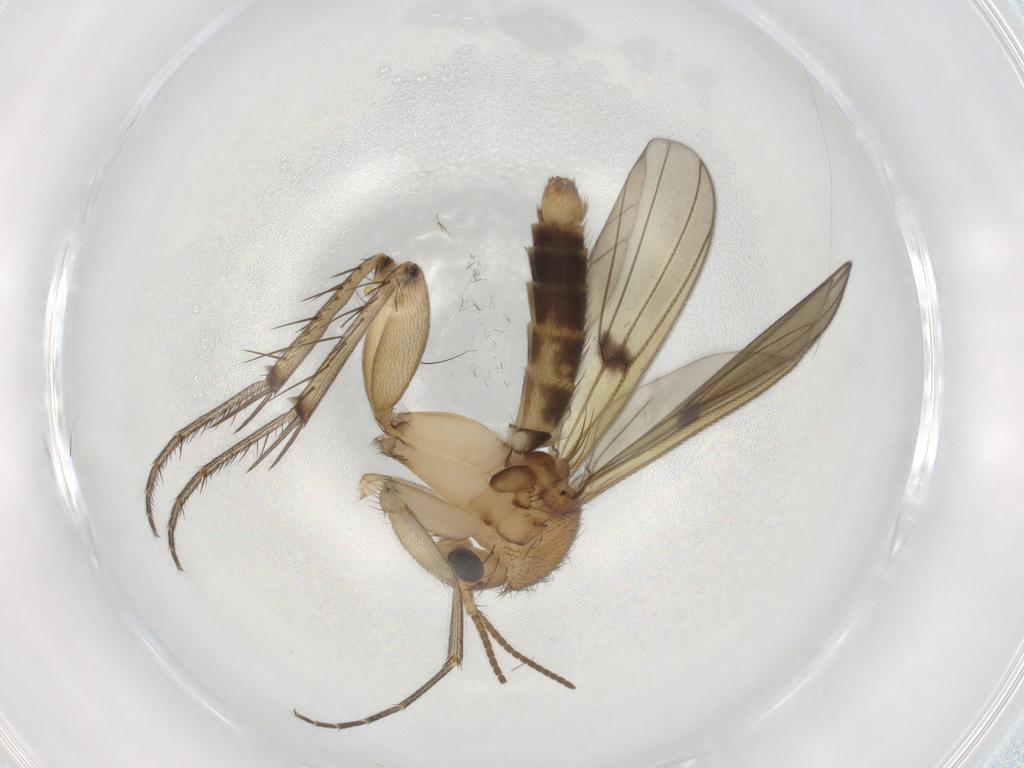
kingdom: Animalia
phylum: Arthropoda
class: Insecta
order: Diptera
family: Mycetophilidae
